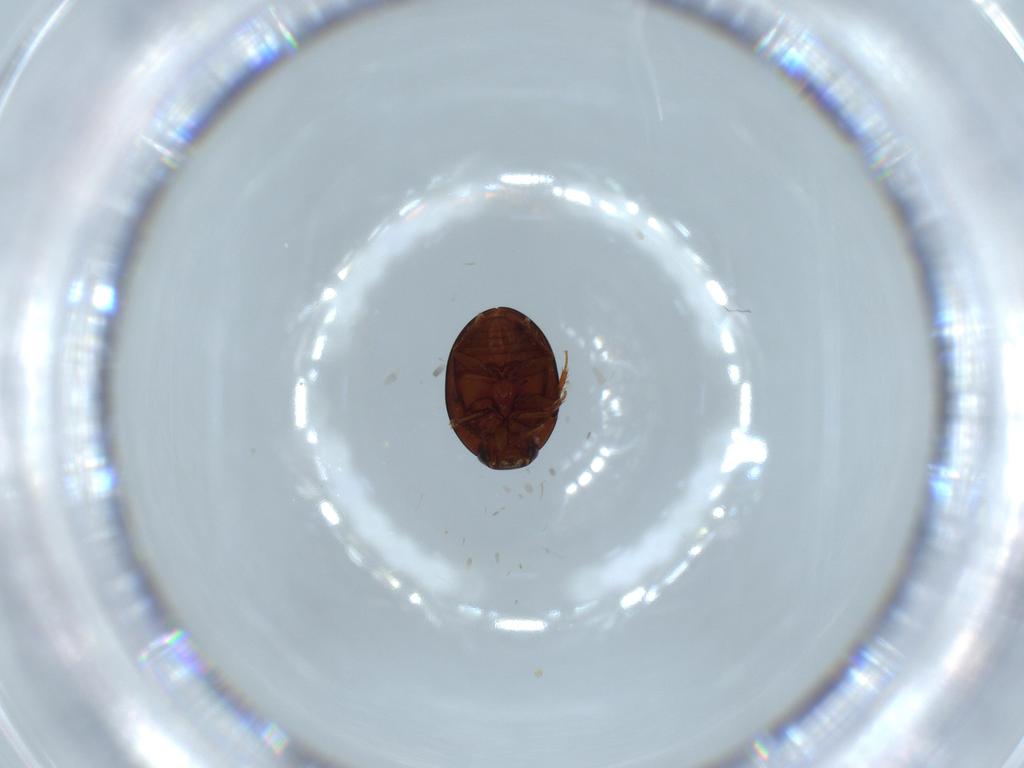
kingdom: Animalia
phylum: Arthropoda
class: Insecta
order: Coleoptera
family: Leiodidae
